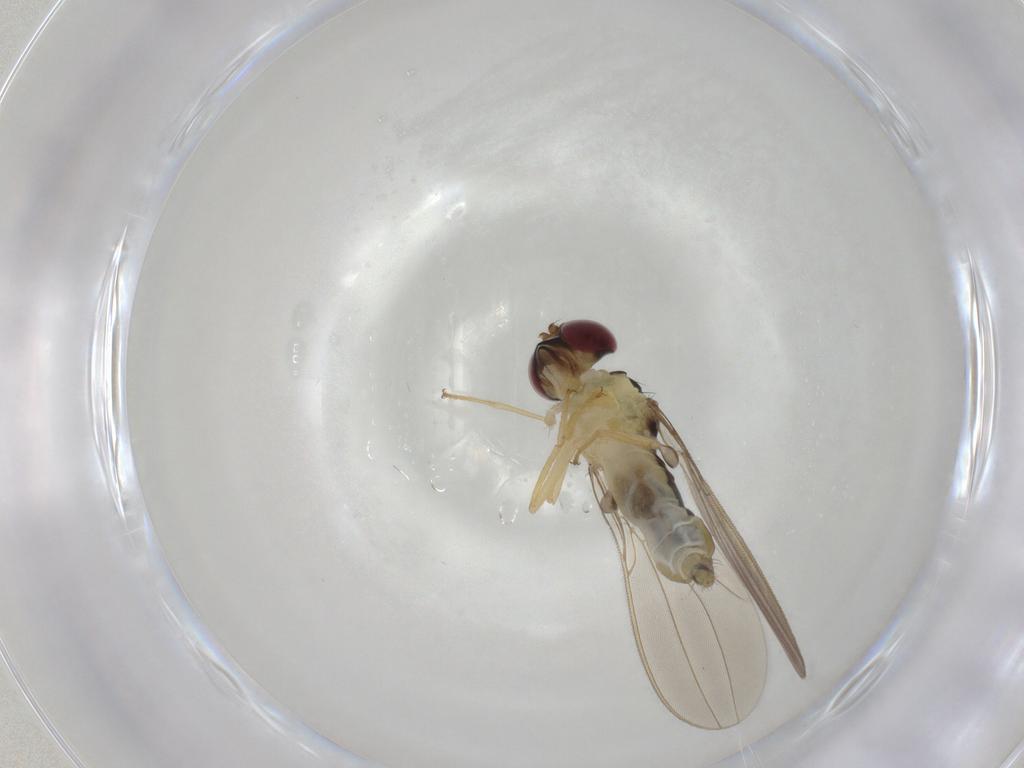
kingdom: Animalia
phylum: Arthropoda
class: Insecta
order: Diptera
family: Asteiidae
